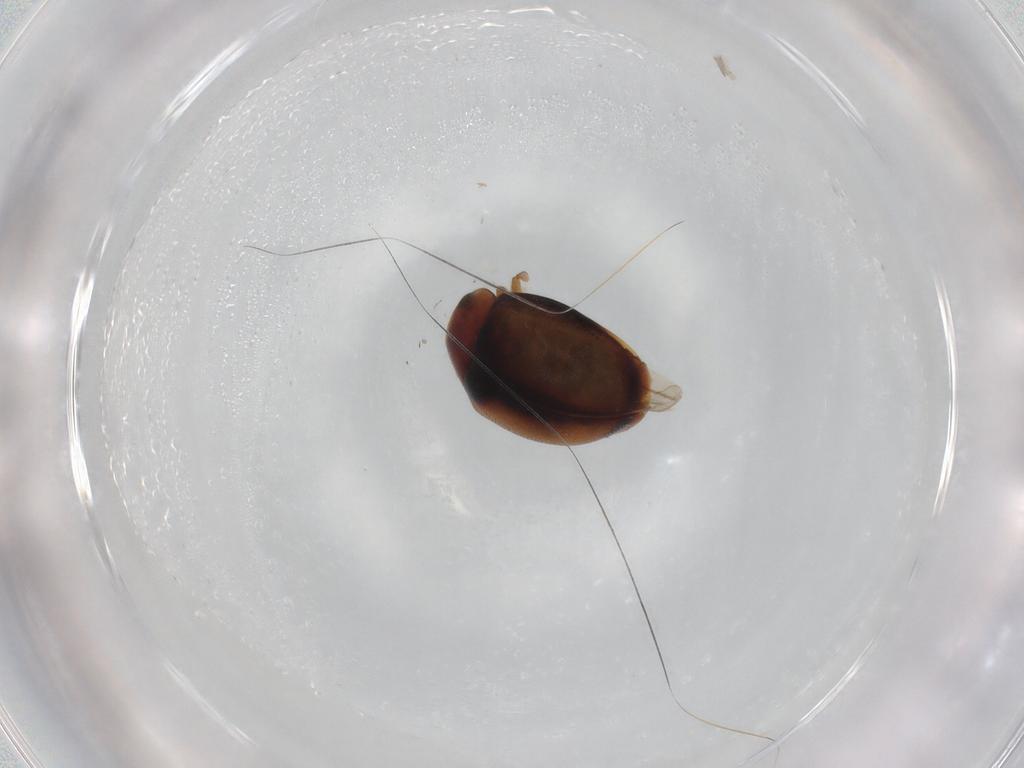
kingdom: Animalia
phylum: Arthropoda
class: Insecta
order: Coleoptera
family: Coccinellidae
